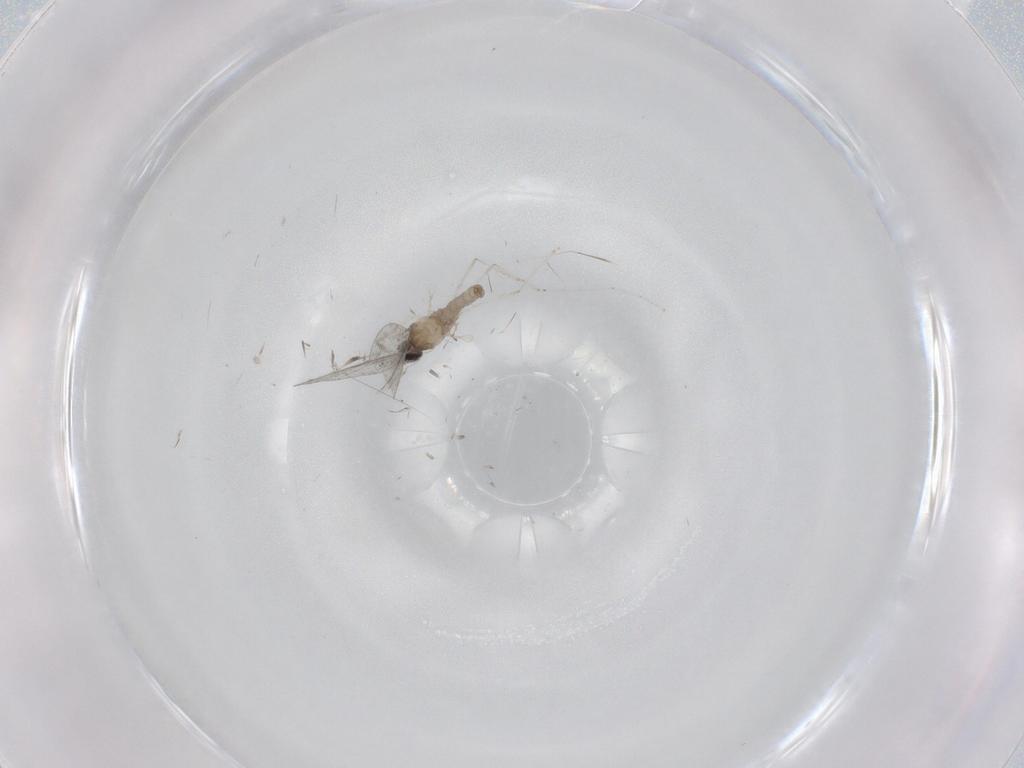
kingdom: Animalia
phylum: Arthropoda
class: Insecta
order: Diptera
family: Cecidomyiidae
